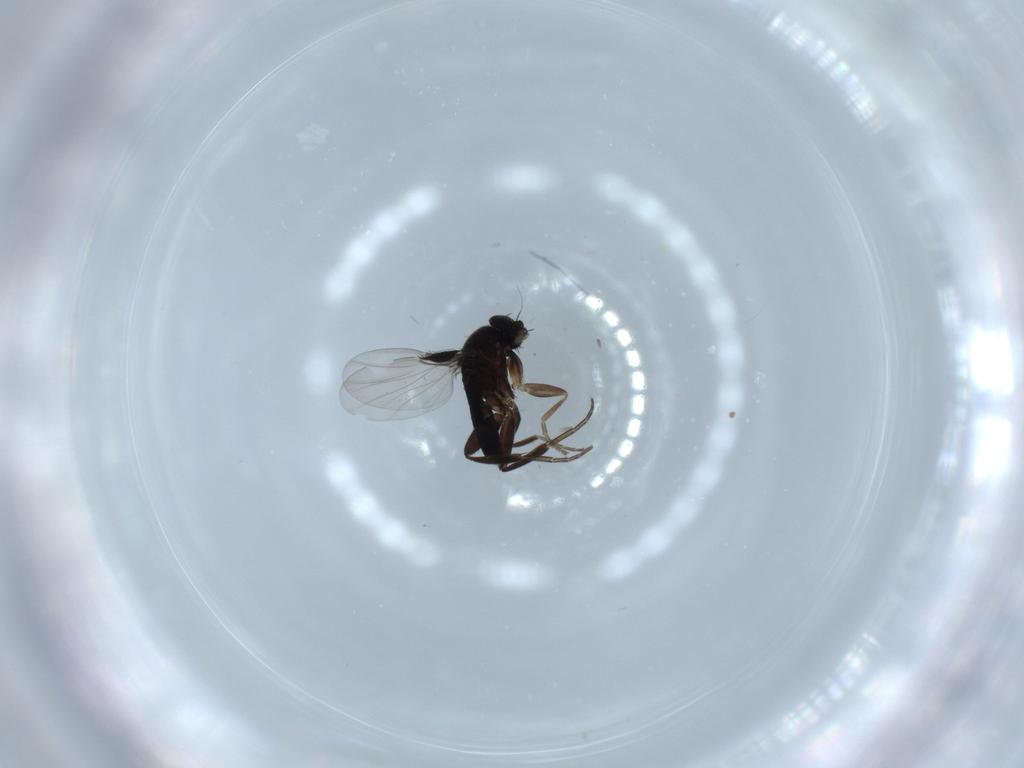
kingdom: Animalia
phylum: Arthropoda
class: Insecta
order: Diptera
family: Phoridae
